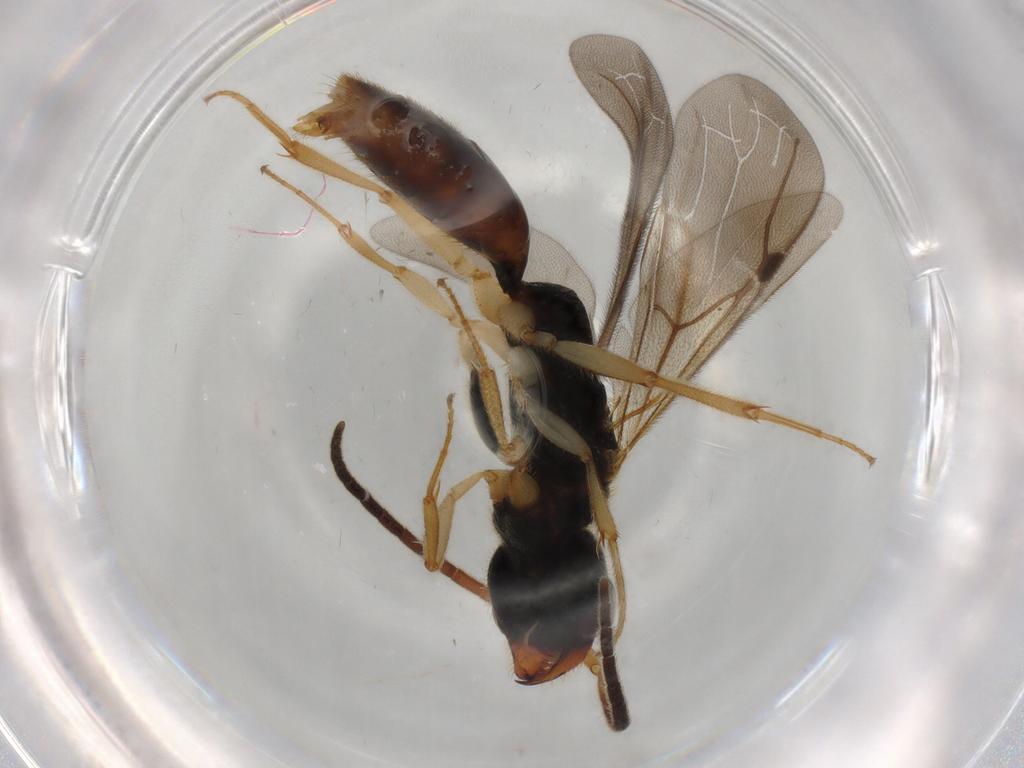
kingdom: Animalia
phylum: Arthropoda
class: Insecta
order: Hymenoptera
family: Bethylidae
